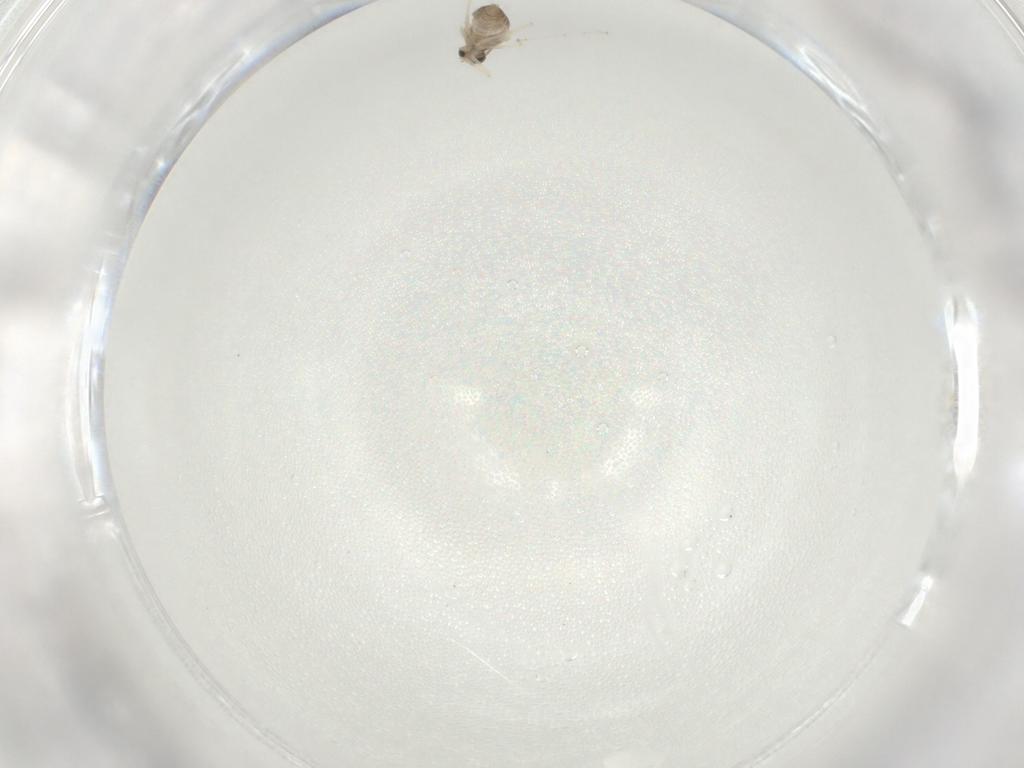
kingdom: Animalia
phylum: Arthropoda
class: Insecta
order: Diptera
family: Cecidomyiidae
